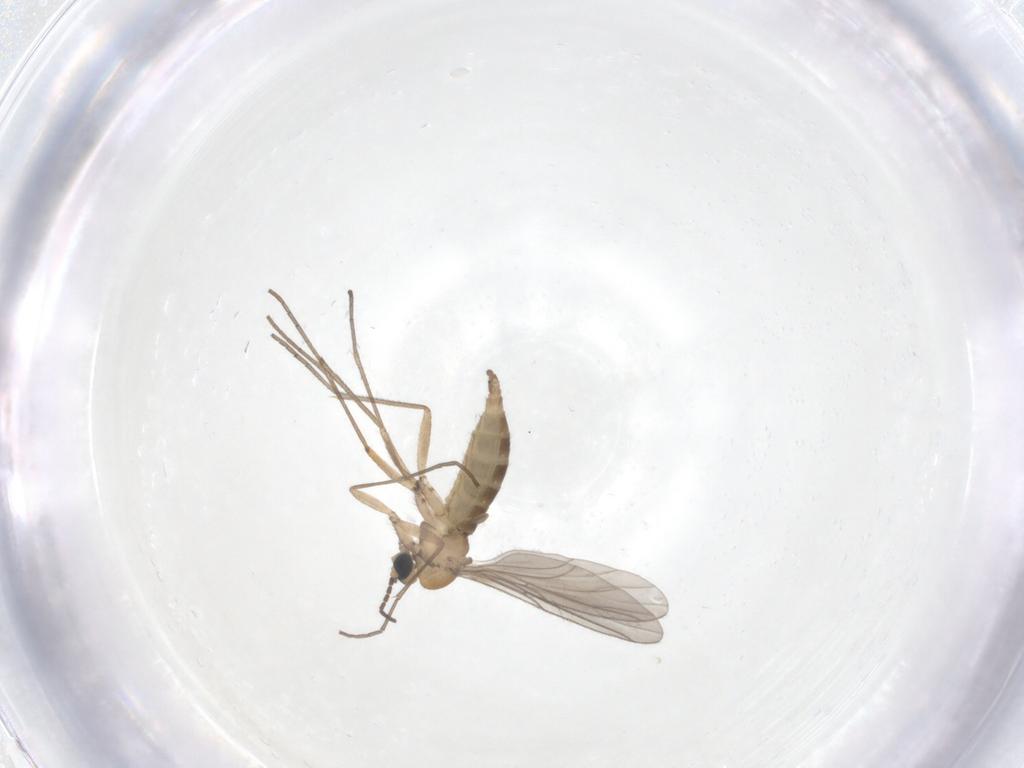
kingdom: Animalia
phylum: Arthropoda
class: Insecta
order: Diptera
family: Sciaridae
